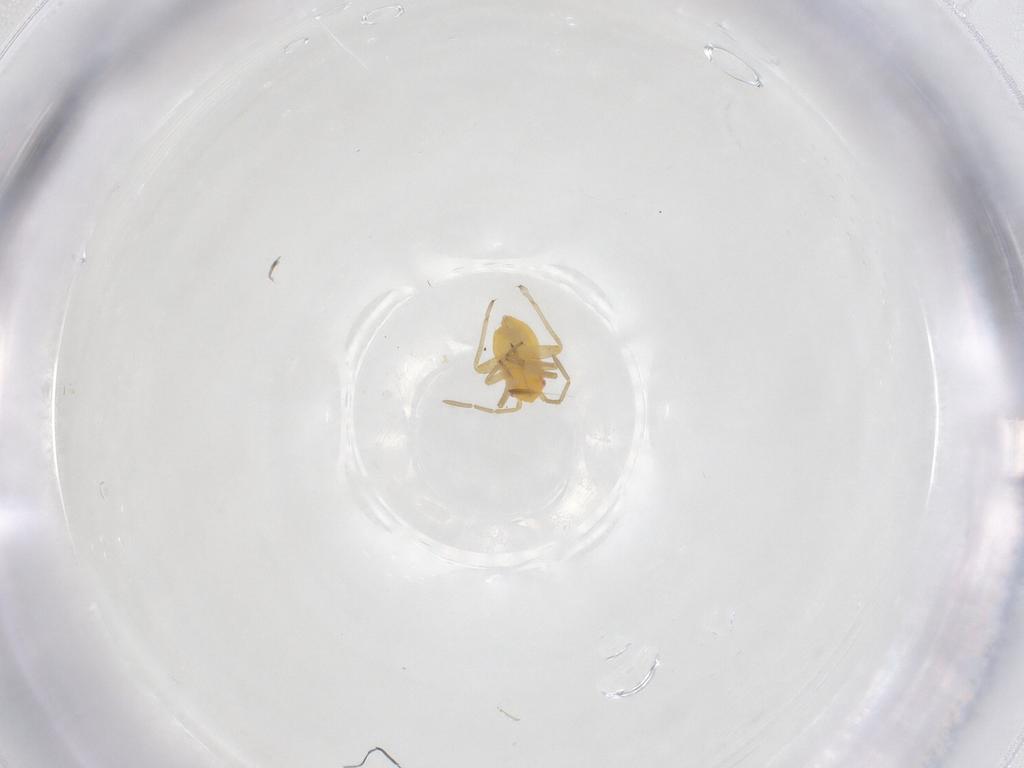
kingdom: Animalia
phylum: Arthropoda
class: Insecta
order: Hemiptera
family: Miridae
